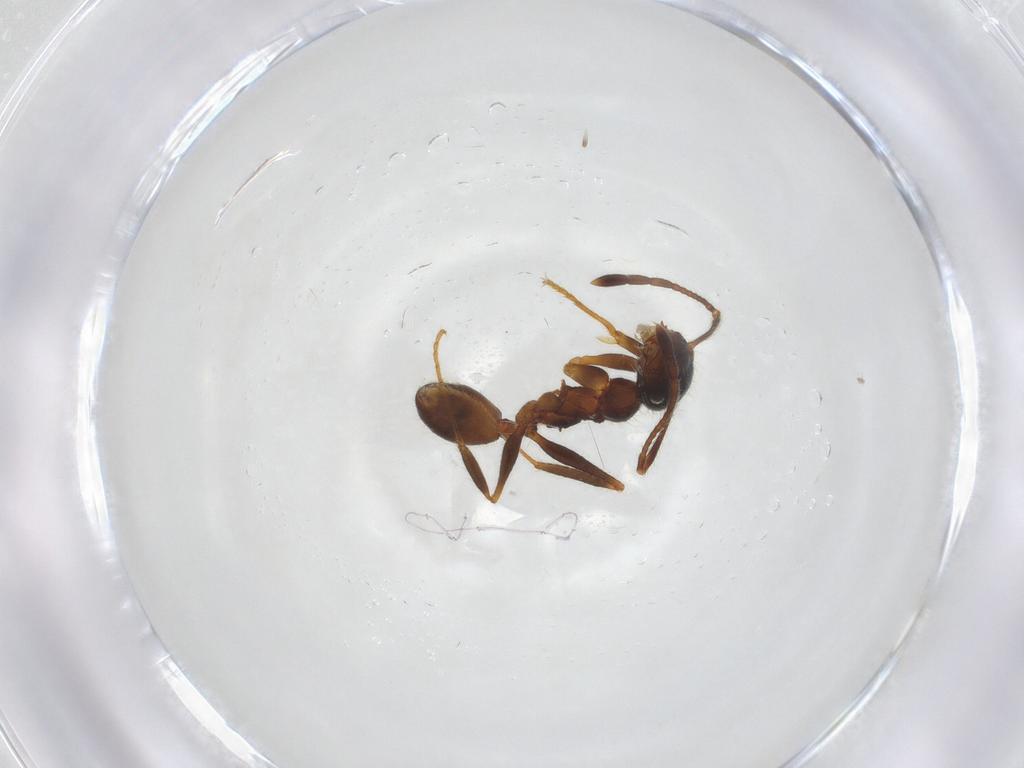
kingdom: Animalia
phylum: Arthropoda
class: Insecta
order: Hymenoptera
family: Formicidae
